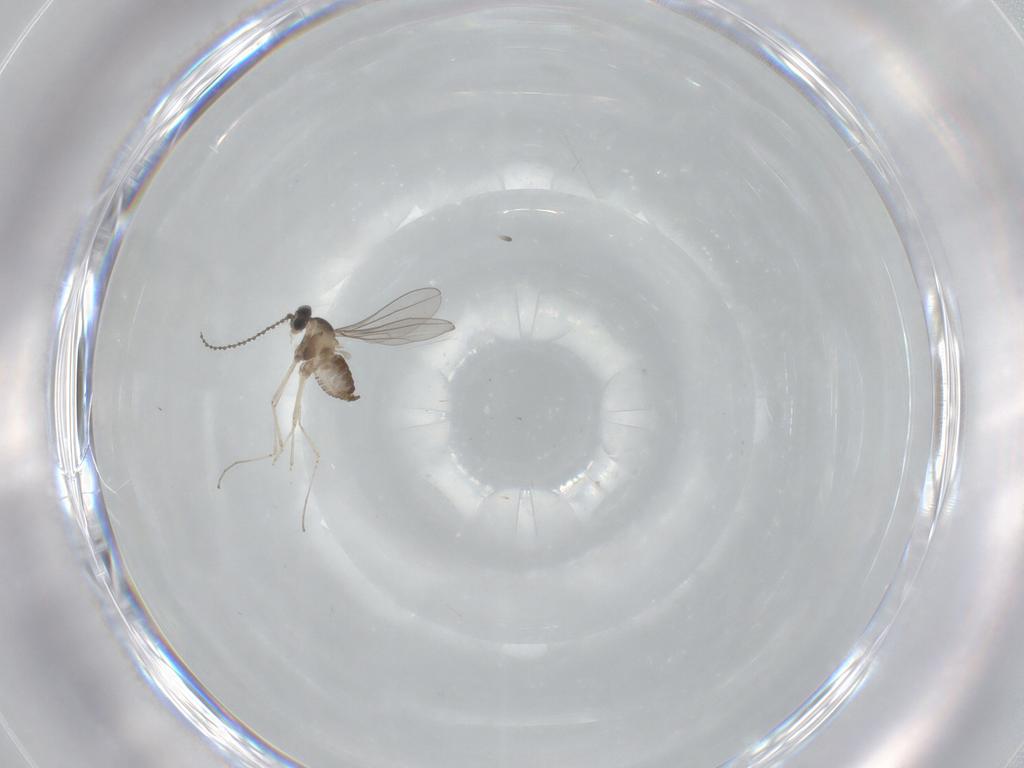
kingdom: Animalia
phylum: Arthropoda
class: Insecta
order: Diptera
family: Cecidomyiidae
